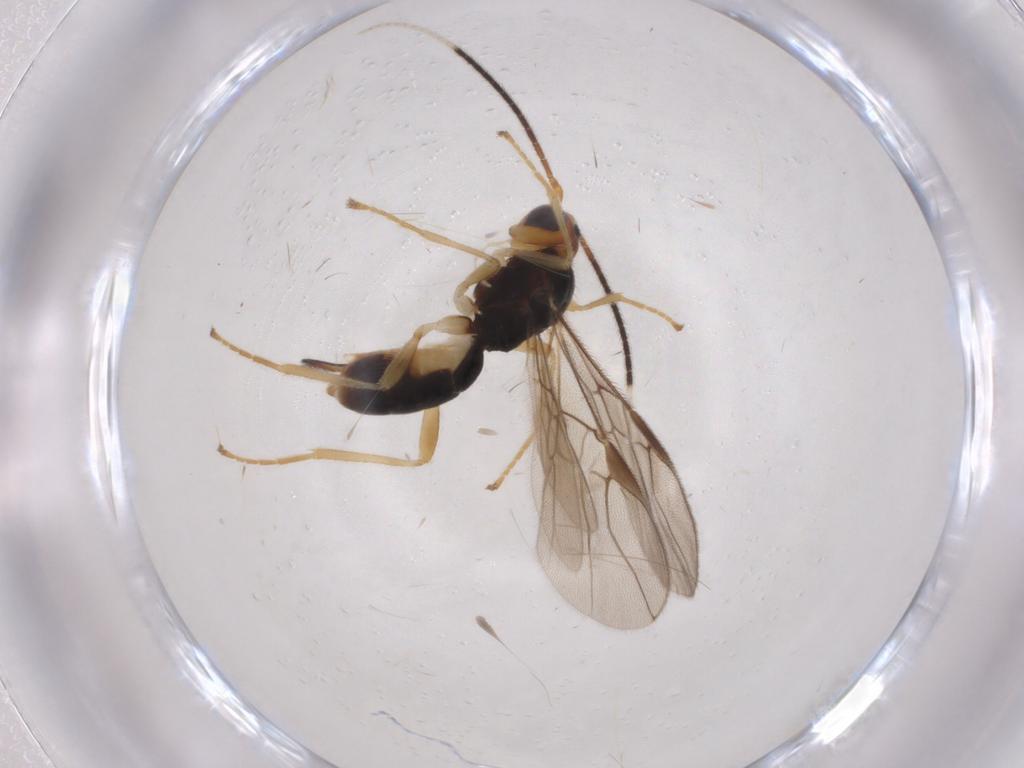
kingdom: Animalia
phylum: Arthropoda
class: Insecta
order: Hymenoptera
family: Braconidae
